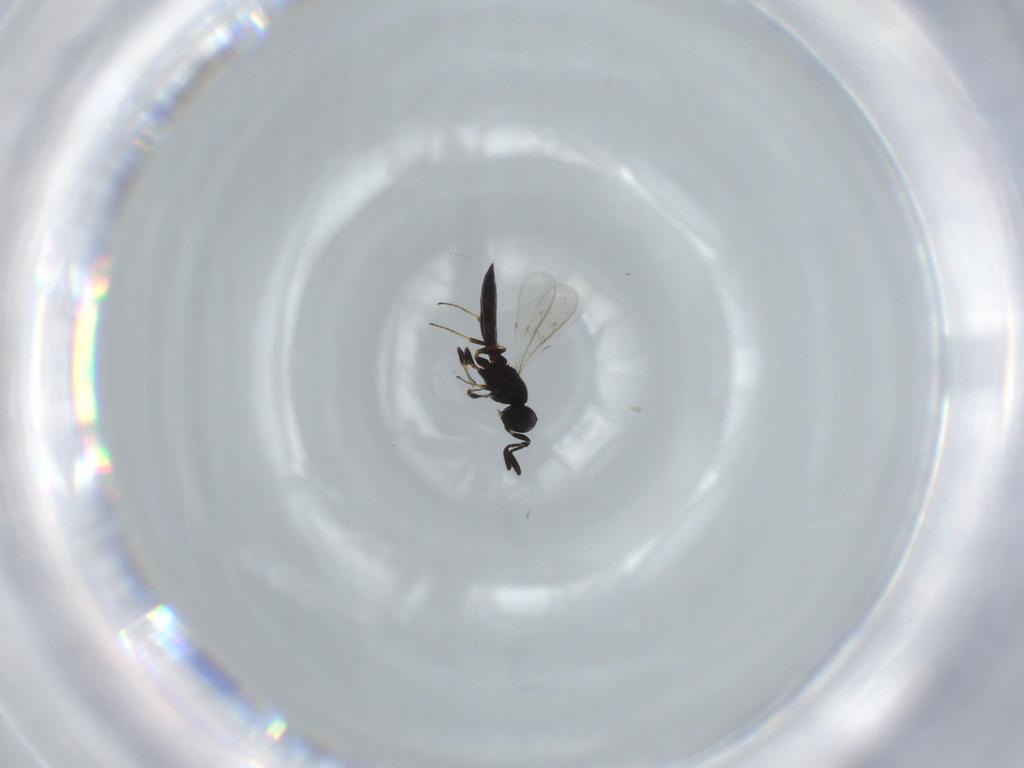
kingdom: Animalia
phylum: Arthropoda
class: Insecta
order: Hymenoptera
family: Scelionidae
